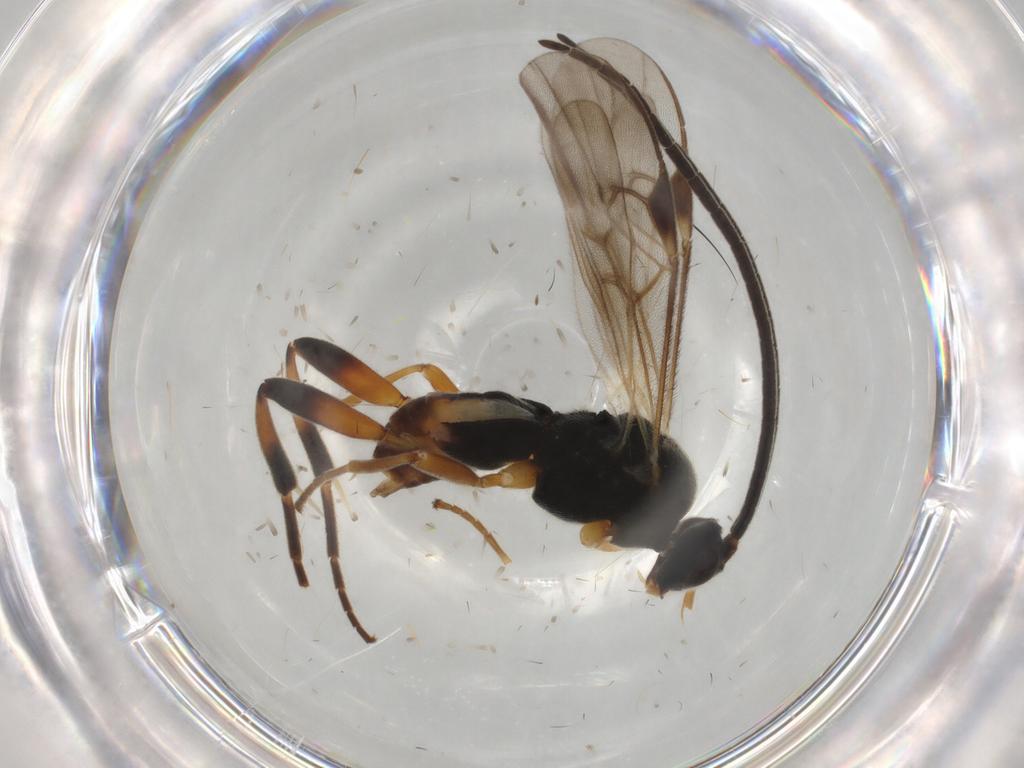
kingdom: Animalia
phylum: Arthropoda
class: Insecta
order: Hymenoptera
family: Braconidae
